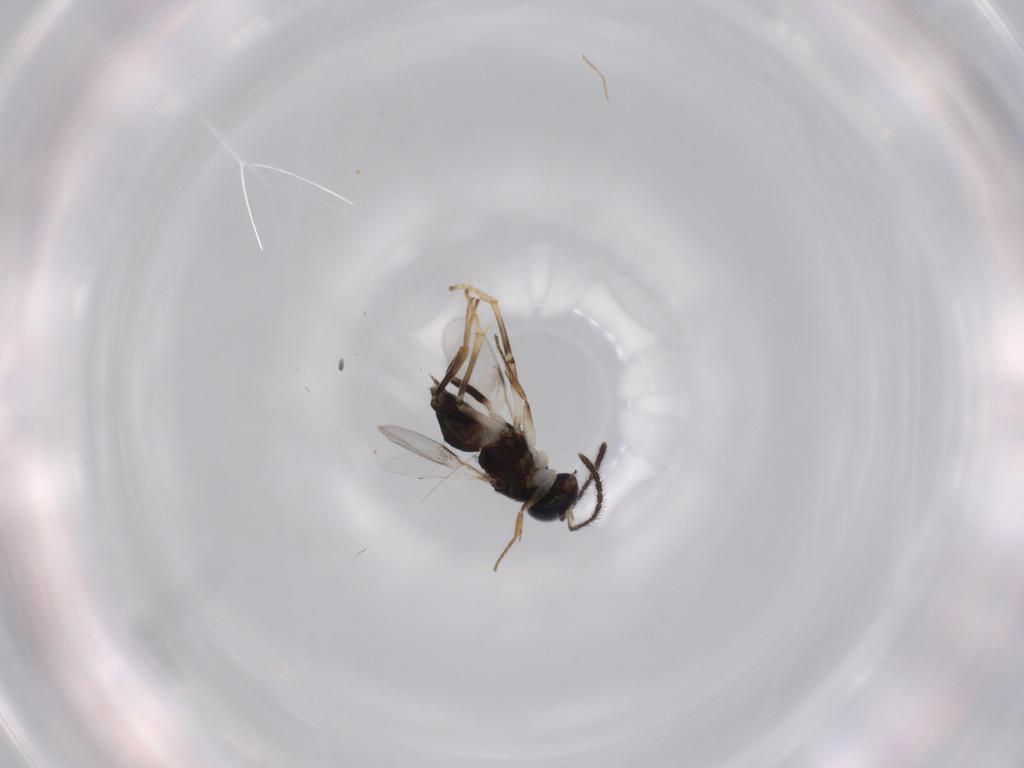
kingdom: Animalia
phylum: Arthropoda
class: Insecta
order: Hymenoptera
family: Encyrtidae
